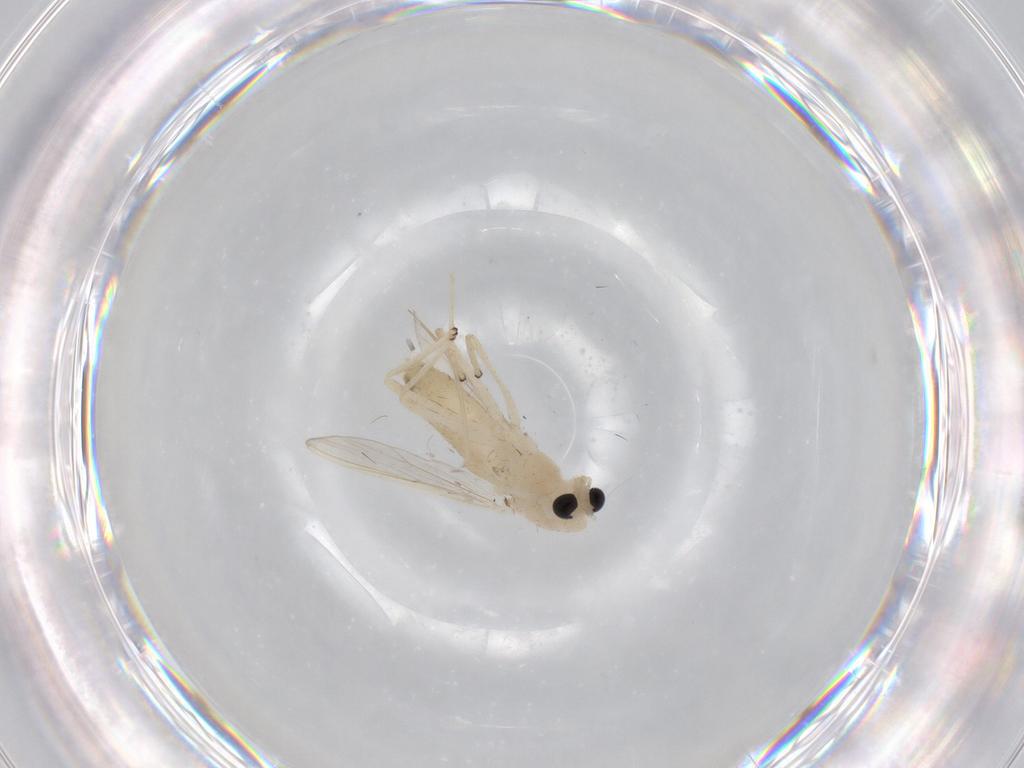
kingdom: Animalia
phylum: Arthropoda
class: Insecta
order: Diptera
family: Chironomidae
